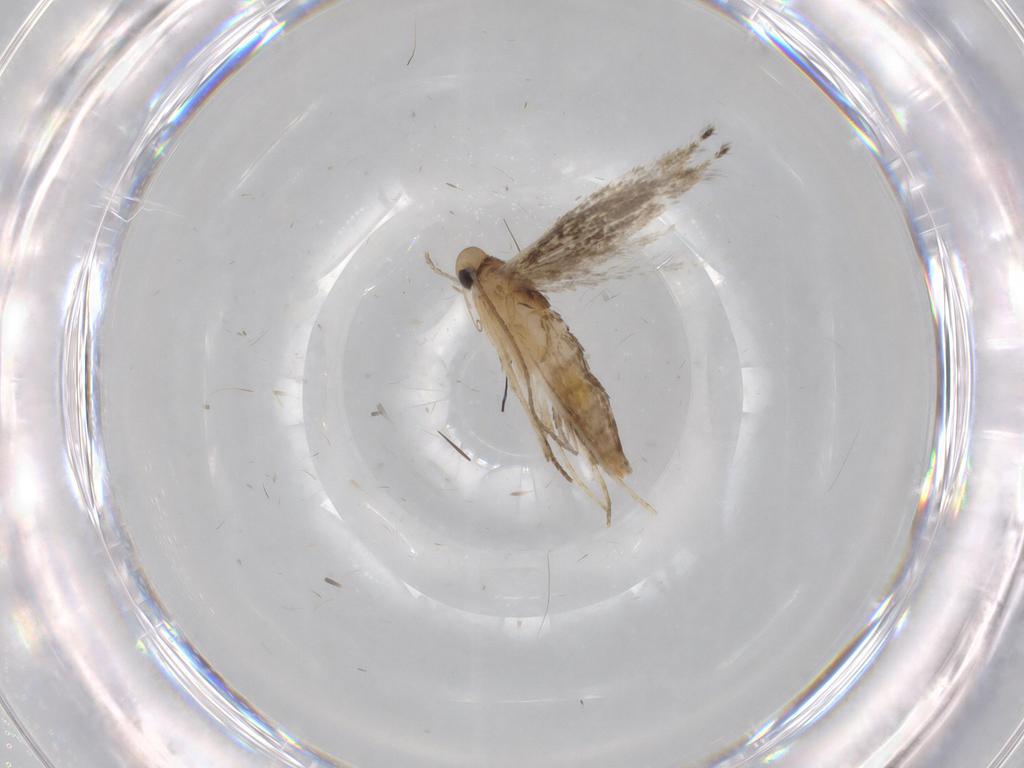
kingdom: Animalia
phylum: Arthropoda
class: Insecta
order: Lepidoptera
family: Gracillariidae
